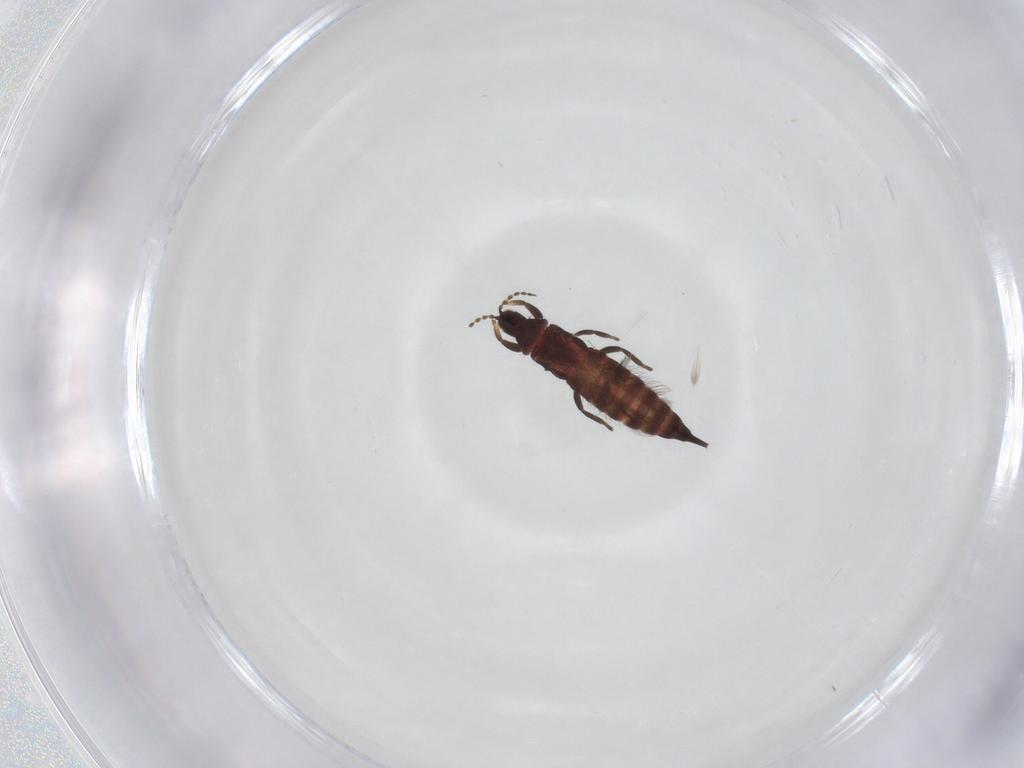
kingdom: Animalia
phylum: Arthropoda
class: Insecta
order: Thysanoptera
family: Phlaeothripidae
